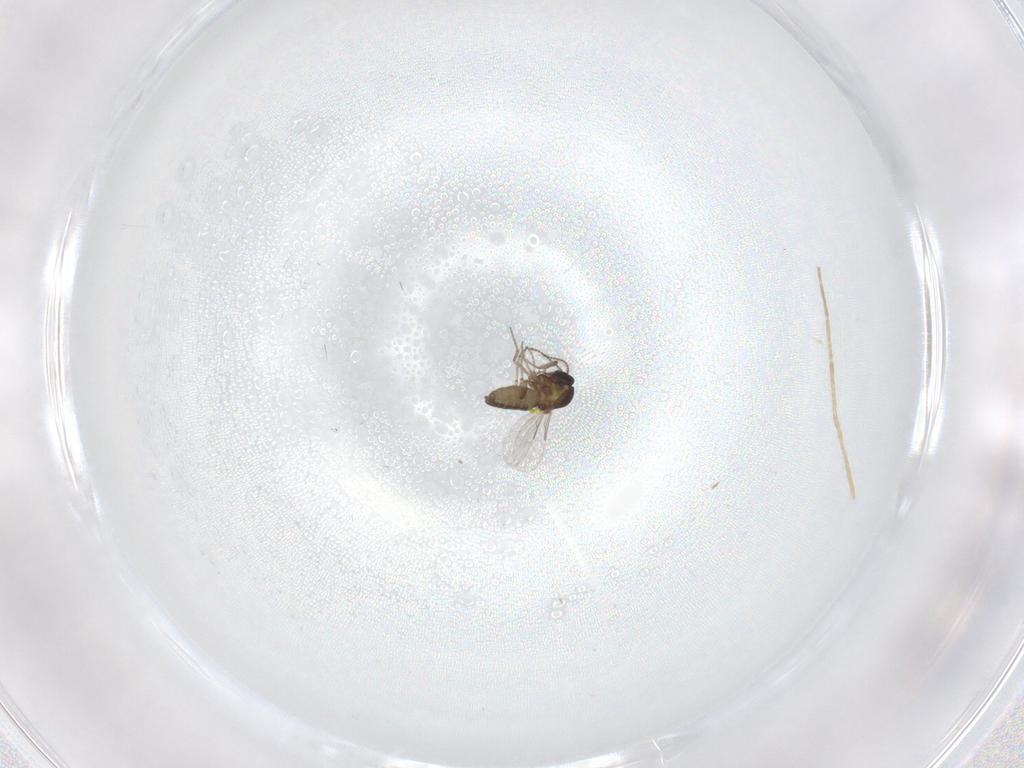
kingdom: Animalia
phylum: Arthropoda
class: Insecta
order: Diptera
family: Ceratopogonidae
